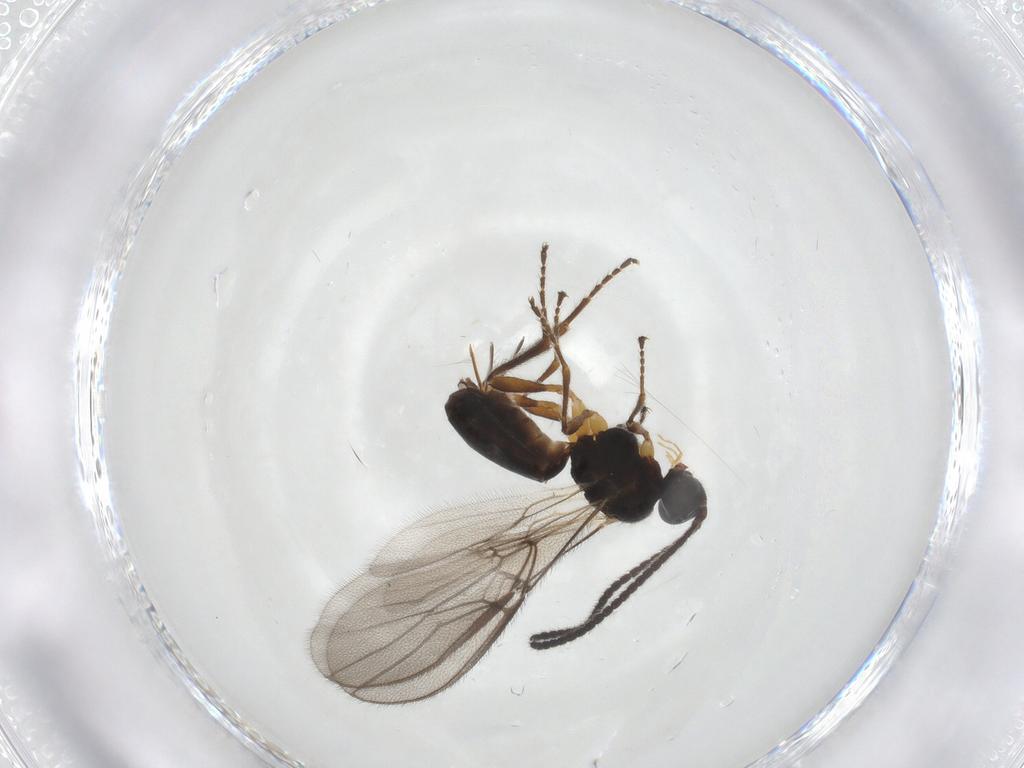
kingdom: Animalia
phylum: Arthropoda
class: Insecta
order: Hymenoptera
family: Braconidae
